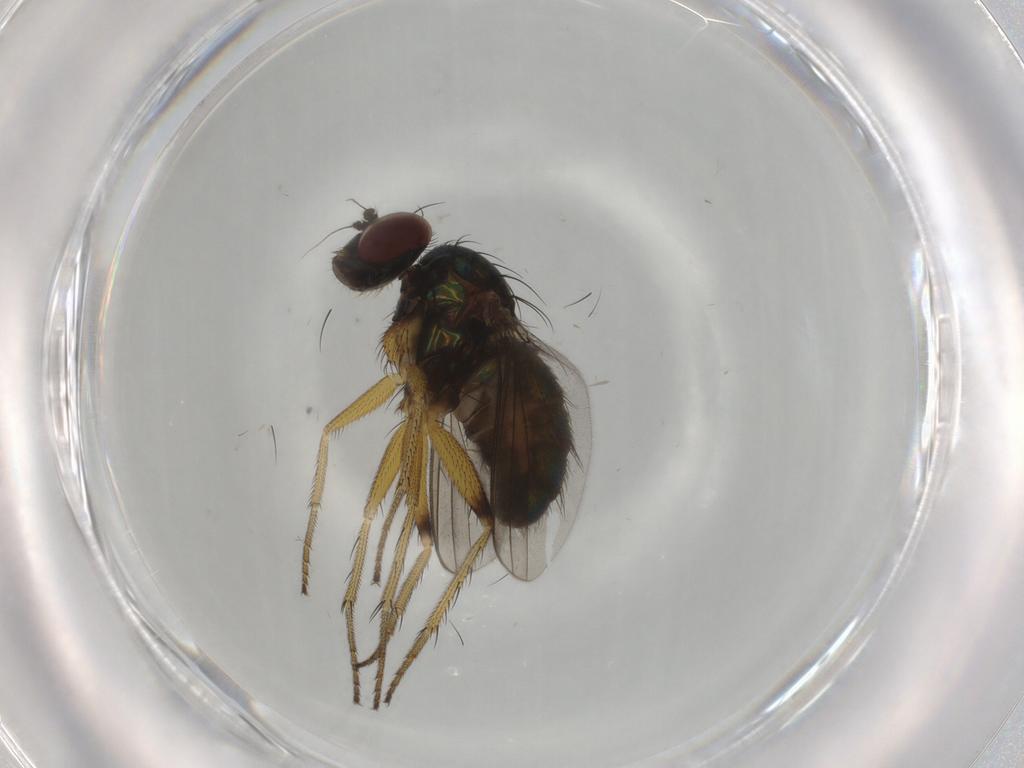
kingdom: Animalia
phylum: Arthropoda
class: Insecta
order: Diptera
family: Dolichopodidae
